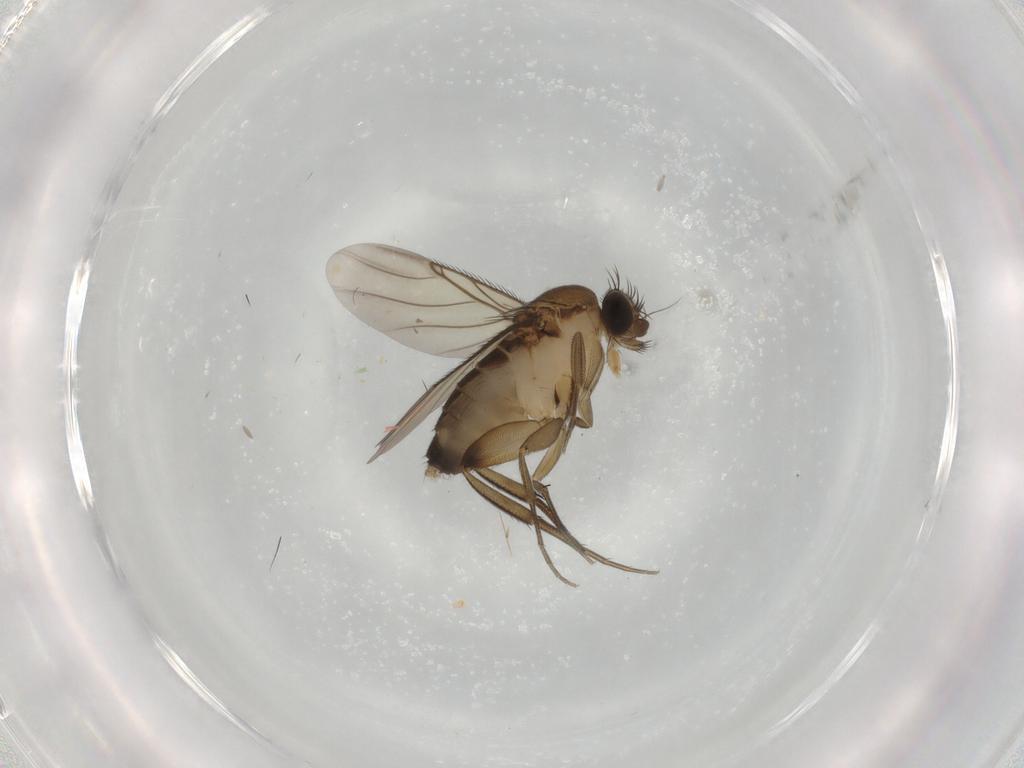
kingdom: Animalia
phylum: Arthropoda
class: Insecta
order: Diptera
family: Phoridae
